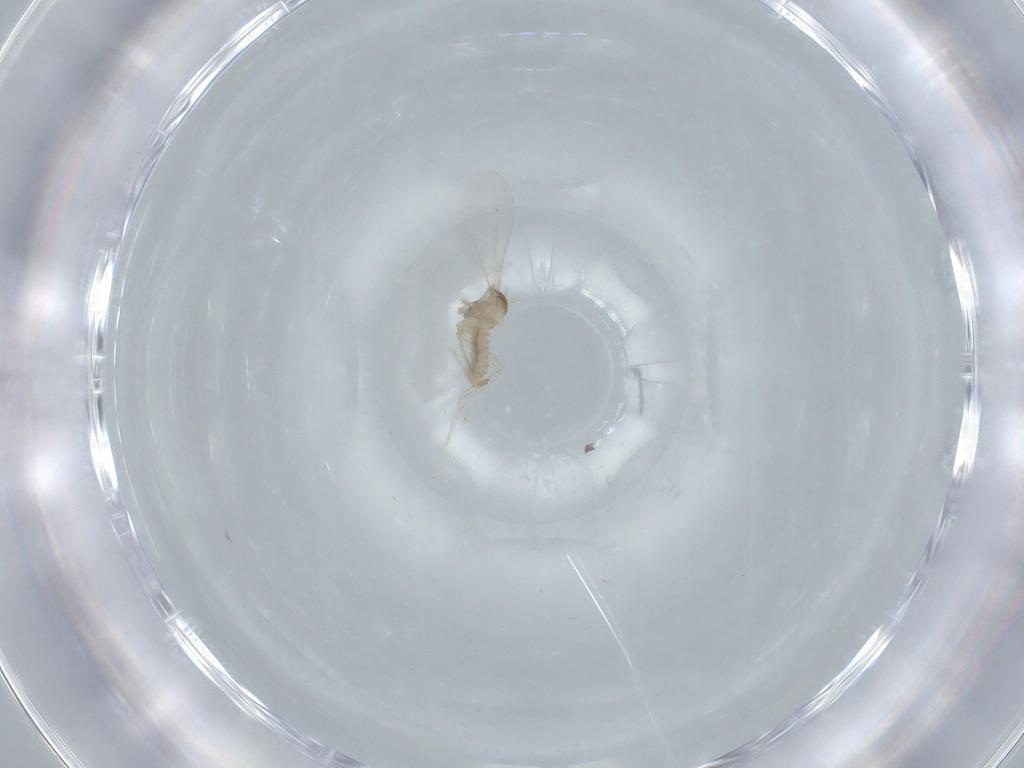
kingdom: Animalia
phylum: Arthropoda
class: Insecta
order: Diptera
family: Cecidomyiidae
